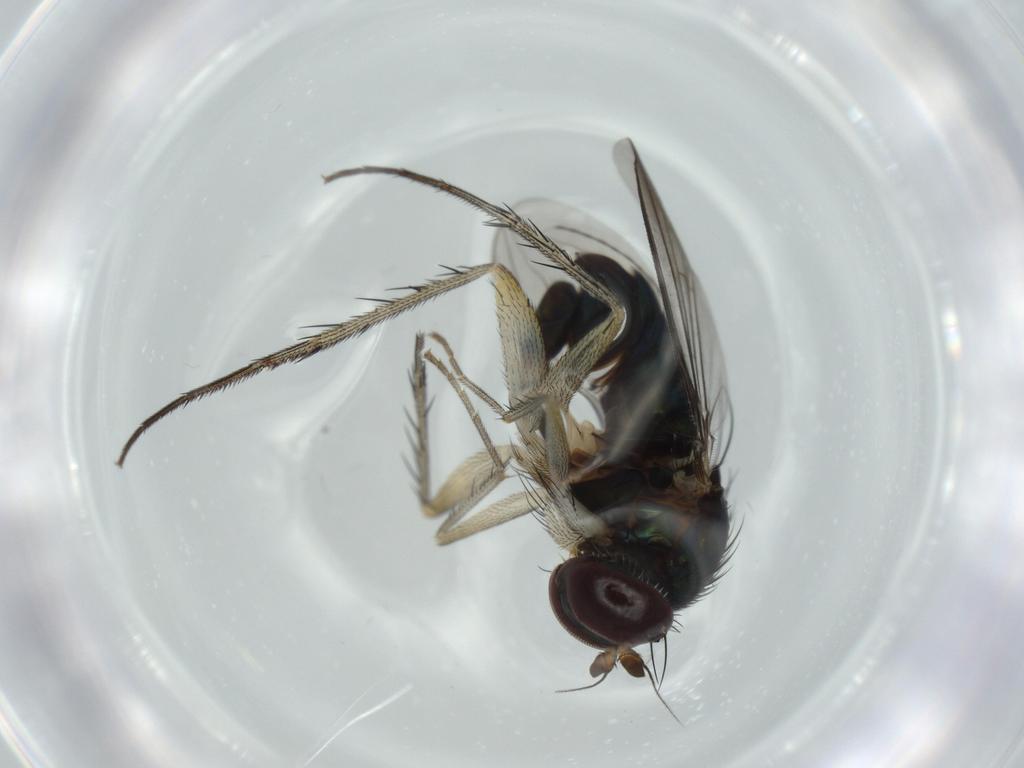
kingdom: Animalia
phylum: Arthropoda
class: Insecta
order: Diptera
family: Dolichopodidae
